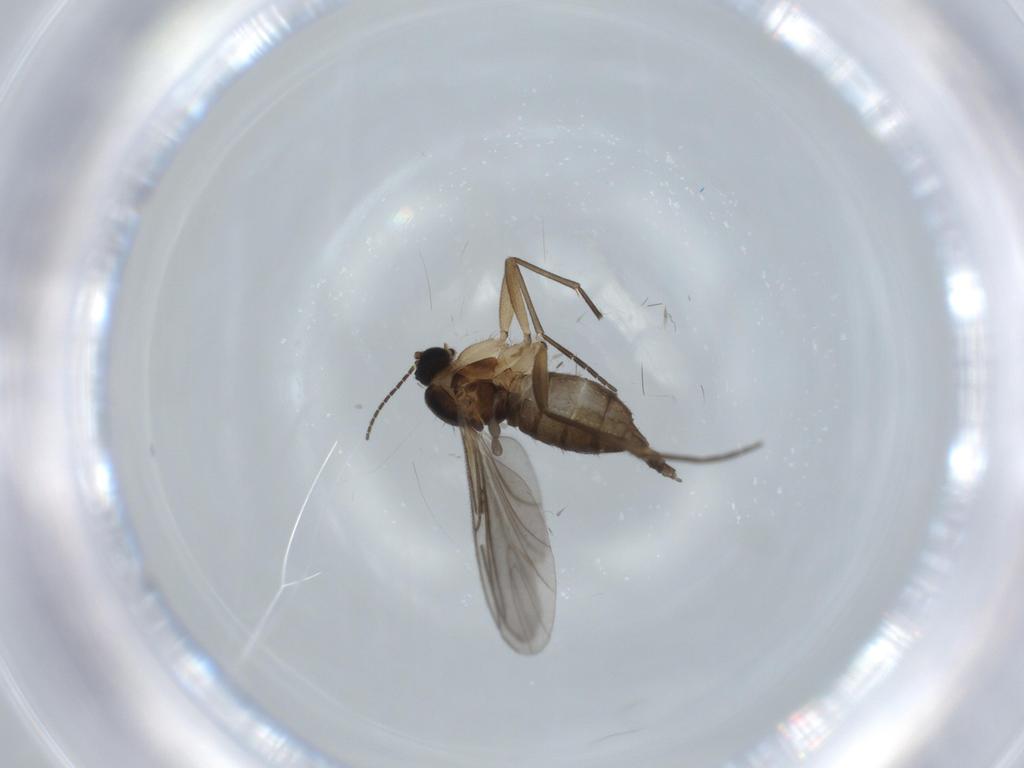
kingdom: Animalia
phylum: Arthropoda
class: Insecta
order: Diptera
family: Sciaridae
